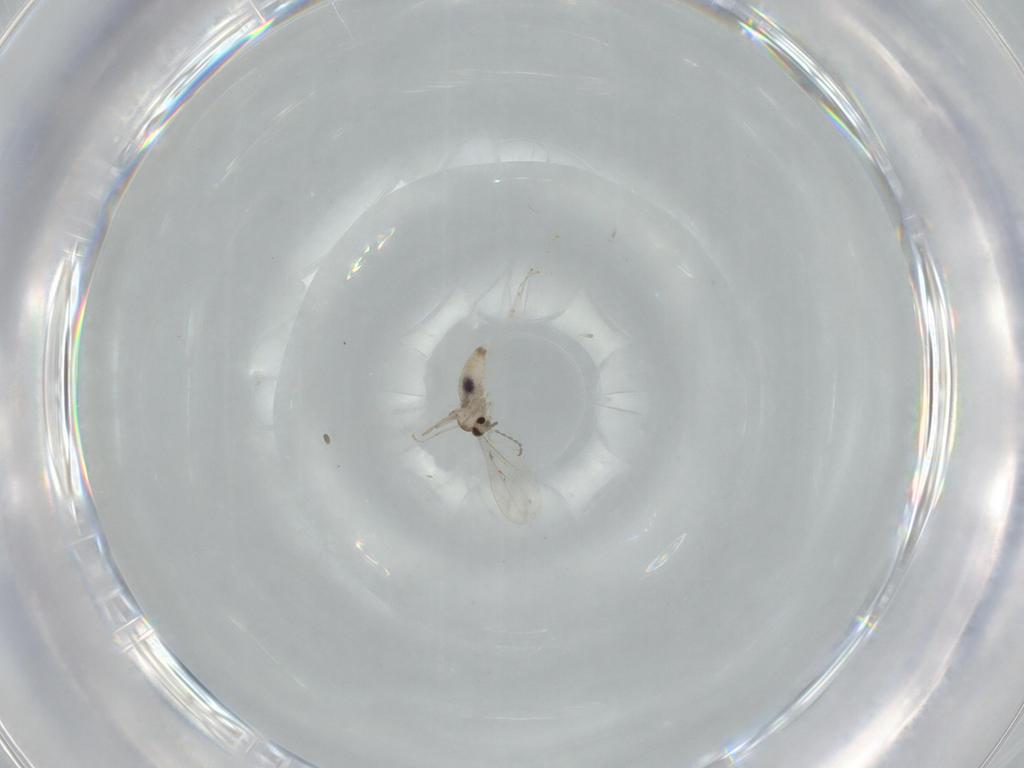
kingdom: Animalia
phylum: Arthropoda
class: Insecta
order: Diptera
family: Cecidomyiidae
